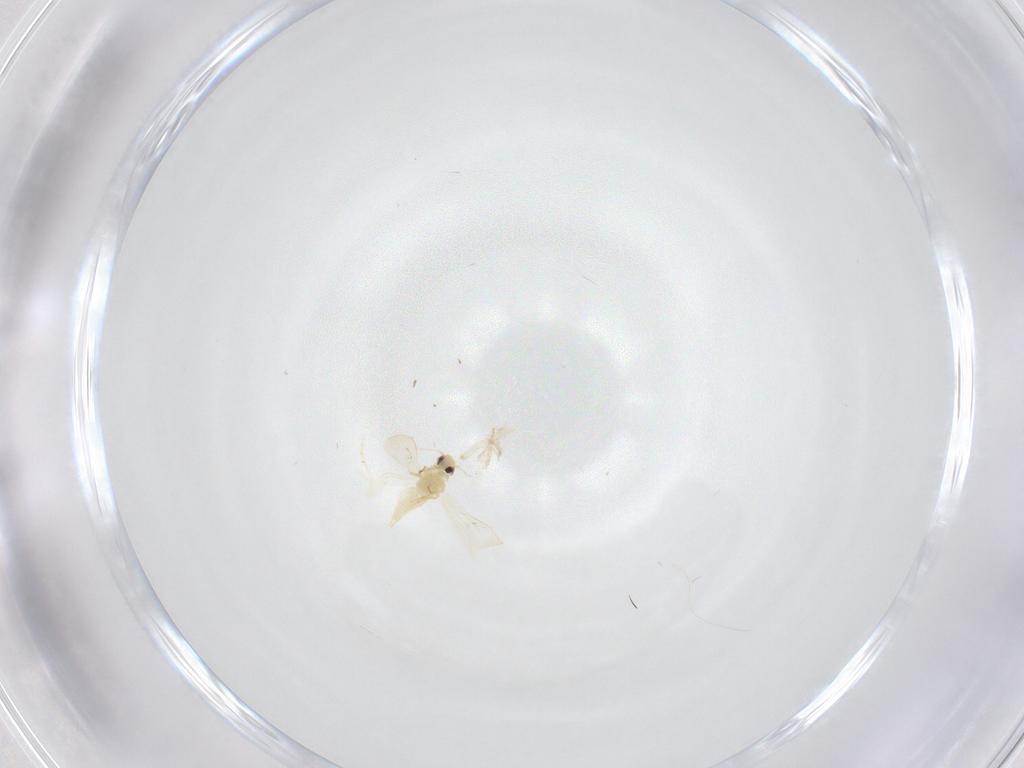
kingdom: Animalia
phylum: Arthropoda
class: Insecta
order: Hemiptera
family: Aleyrodidae
